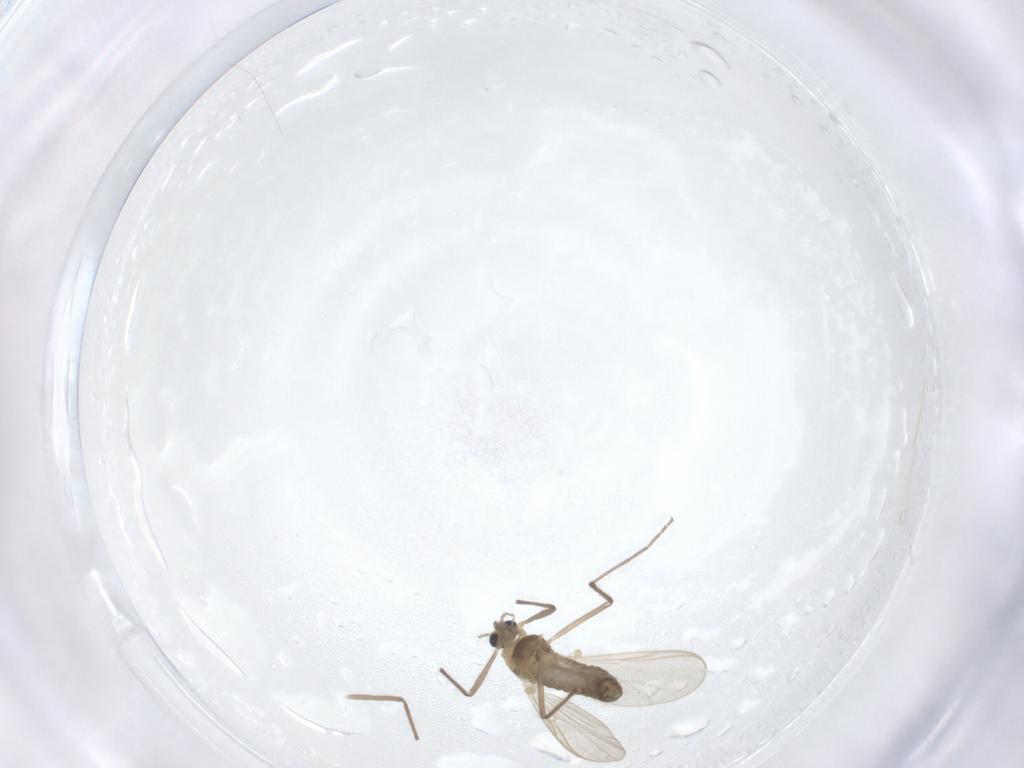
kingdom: Animalia
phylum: Arthropoda
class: Insecta
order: Diptera
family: Chironomidae
